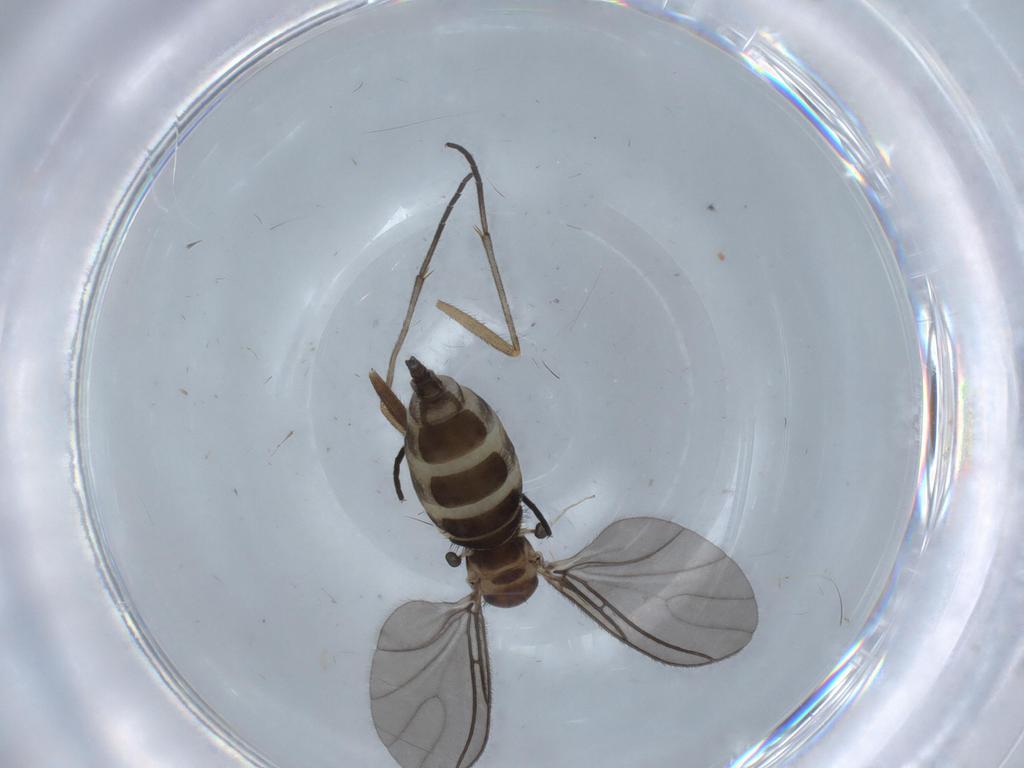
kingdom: Animalia
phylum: Arthropoda
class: Insecta
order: Diptera
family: Sciaridae
